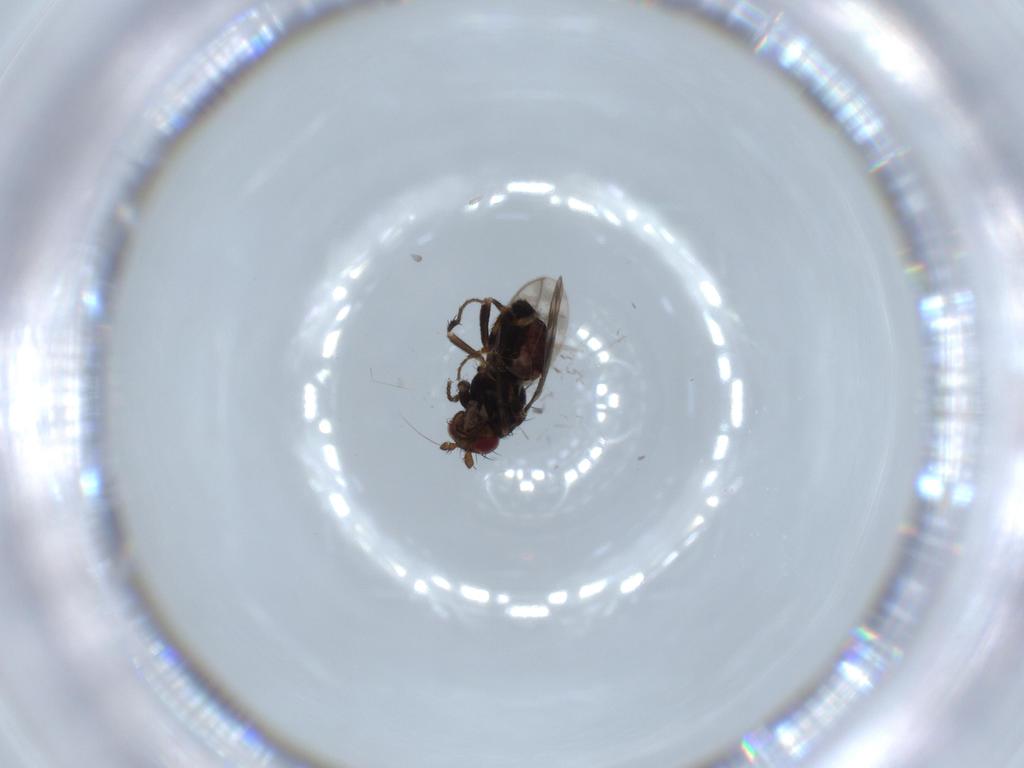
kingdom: Animalia
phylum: Arthropoda
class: Insecta
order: Diptera
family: Sphaeroceridae
